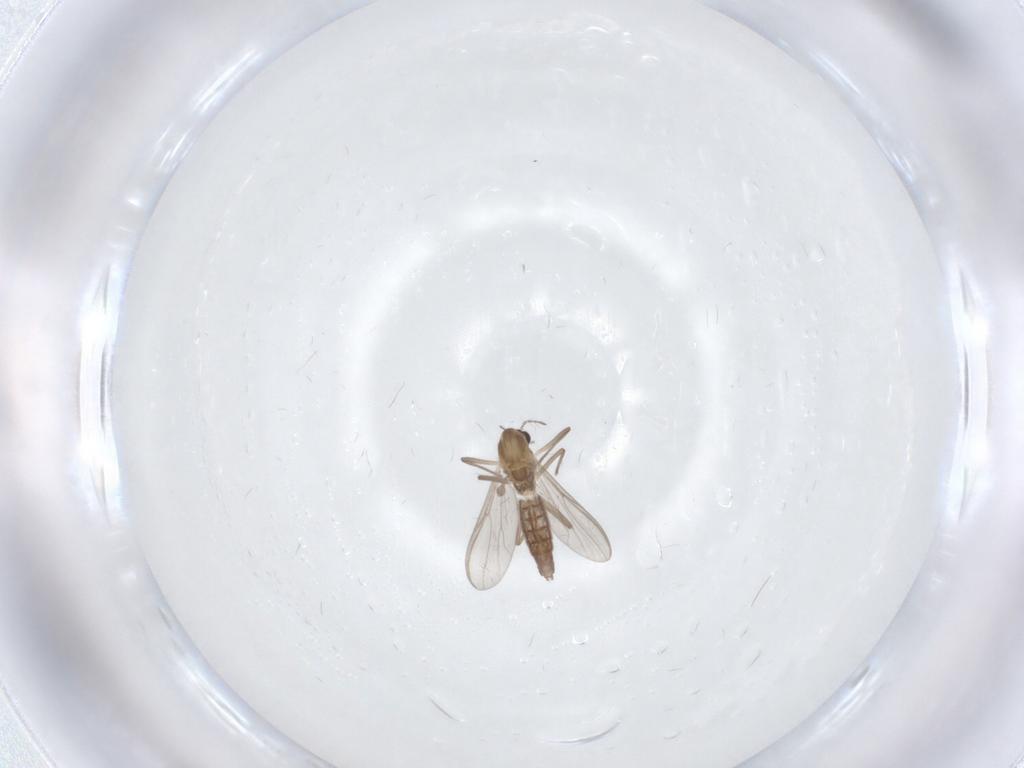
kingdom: Animalia
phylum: Arthropoda
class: Insecta
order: Diptera
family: Chironomidae
